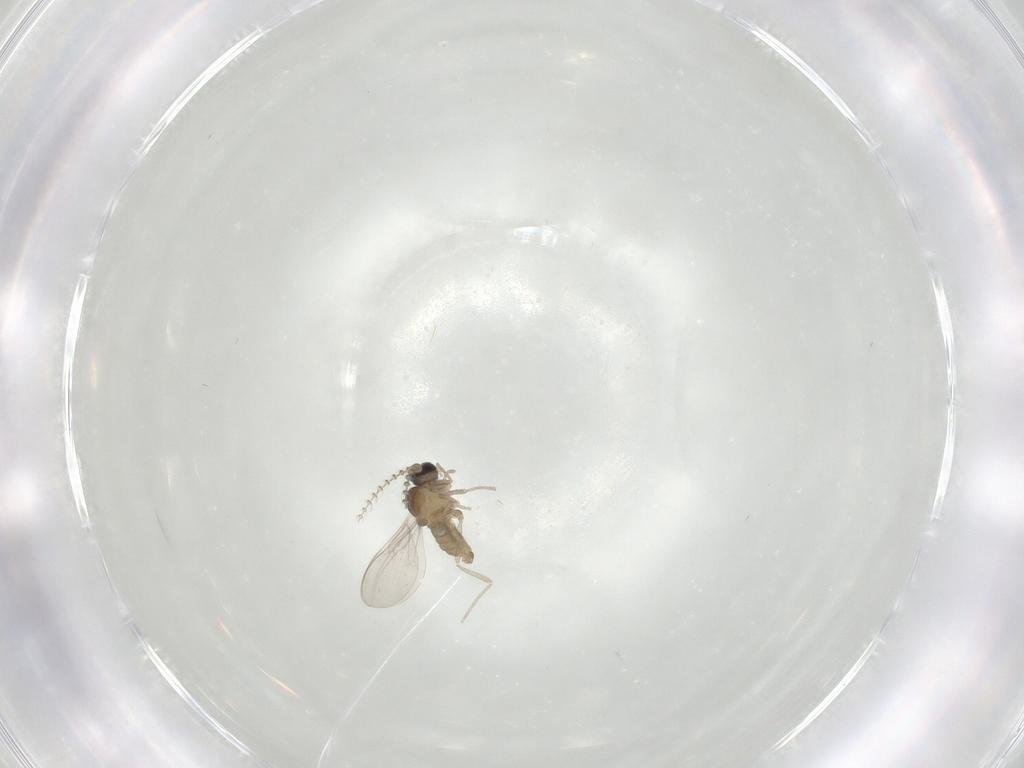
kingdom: Animalia
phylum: Arthropoda
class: Insecta
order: Diptera
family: Cecidomyiidae
